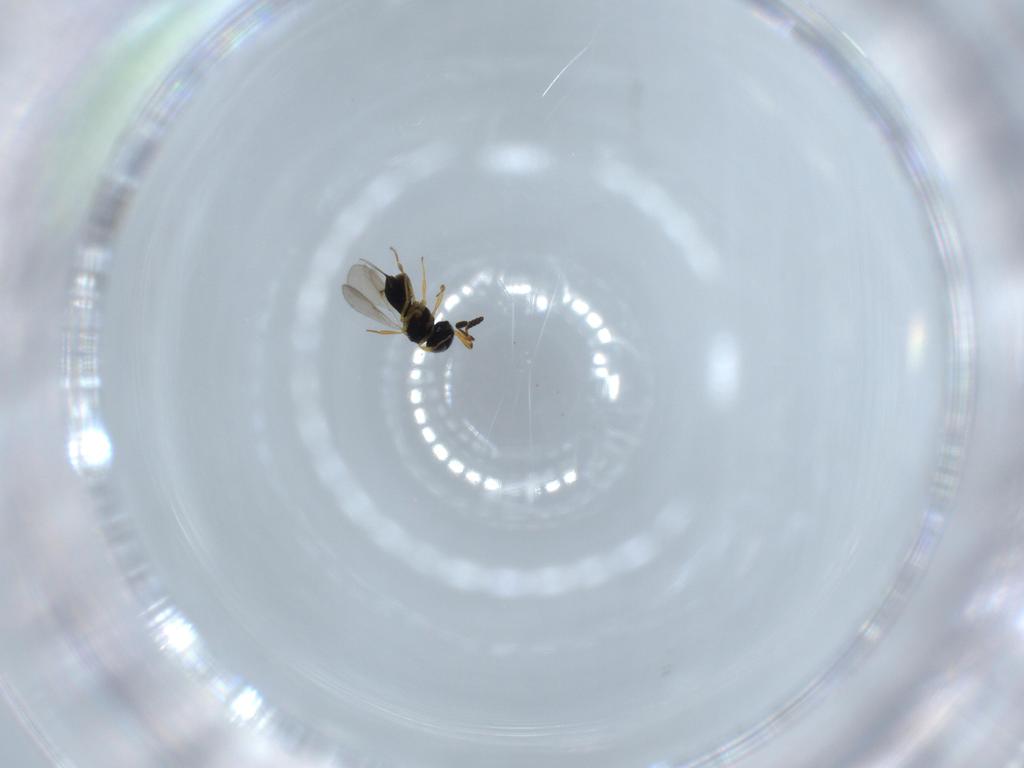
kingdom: Animalia
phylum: Arthropoda
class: Insecta
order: Hymenoptera
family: Scelionidae
